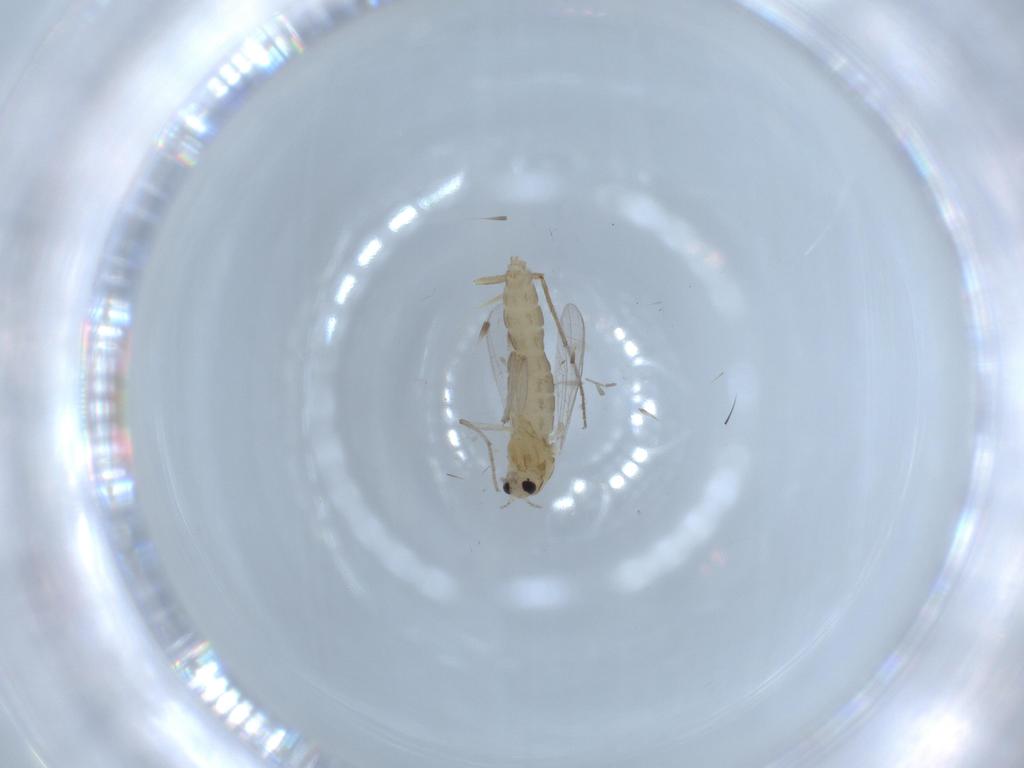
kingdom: Animalia
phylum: Arthropoda
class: Insecta
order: Diptera
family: Chironomidae
